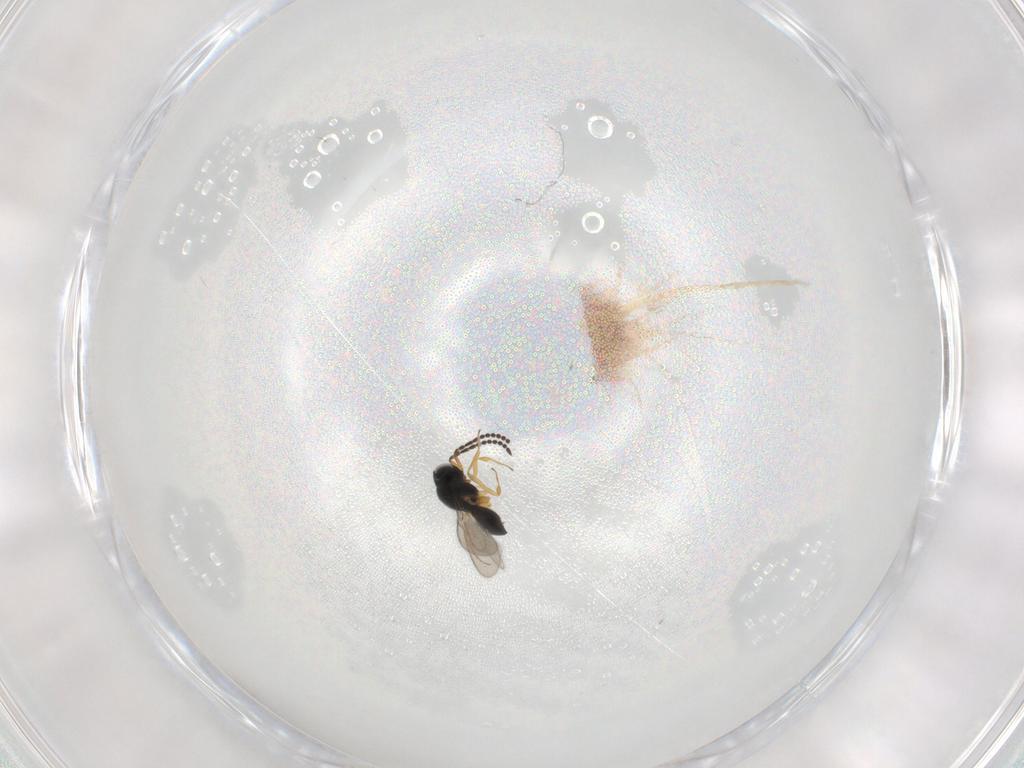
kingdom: Animalia
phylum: Arthropoda
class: Insecta
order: Hymenoptera
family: Scelionidae
